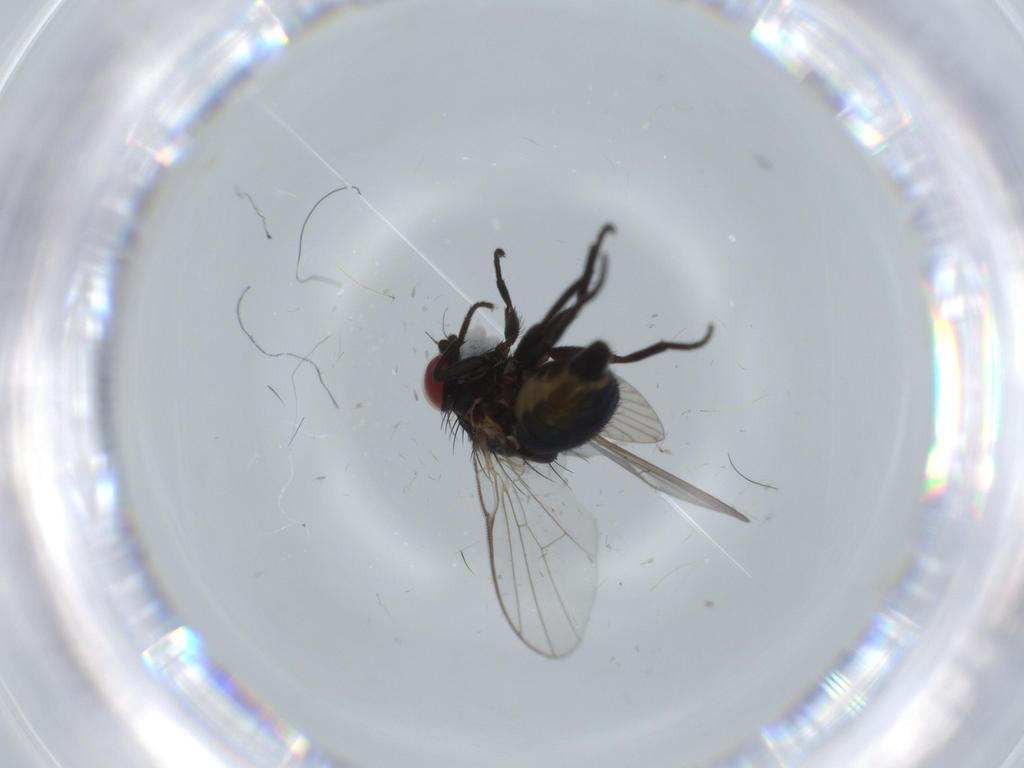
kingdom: Animalia
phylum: Arthropoda
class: Insecta
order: Diptera
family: Agromyzidae
